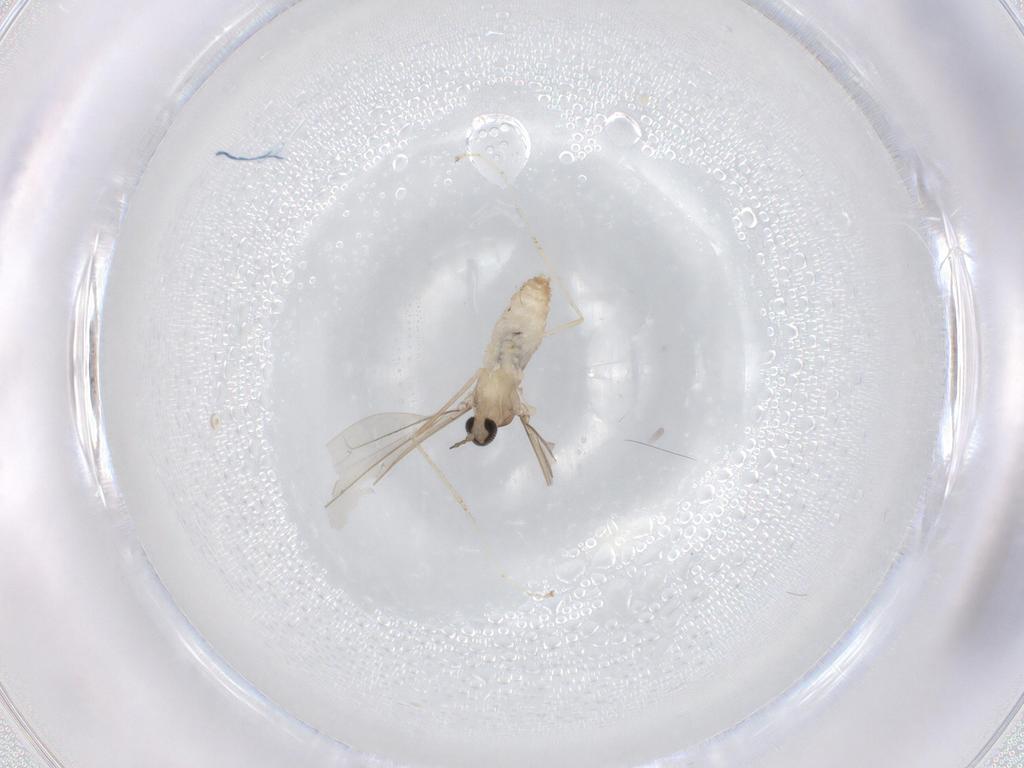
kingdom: Animalia
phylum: Arthropoda
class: Insecta
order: Diptera
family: Cecidomyiidae
